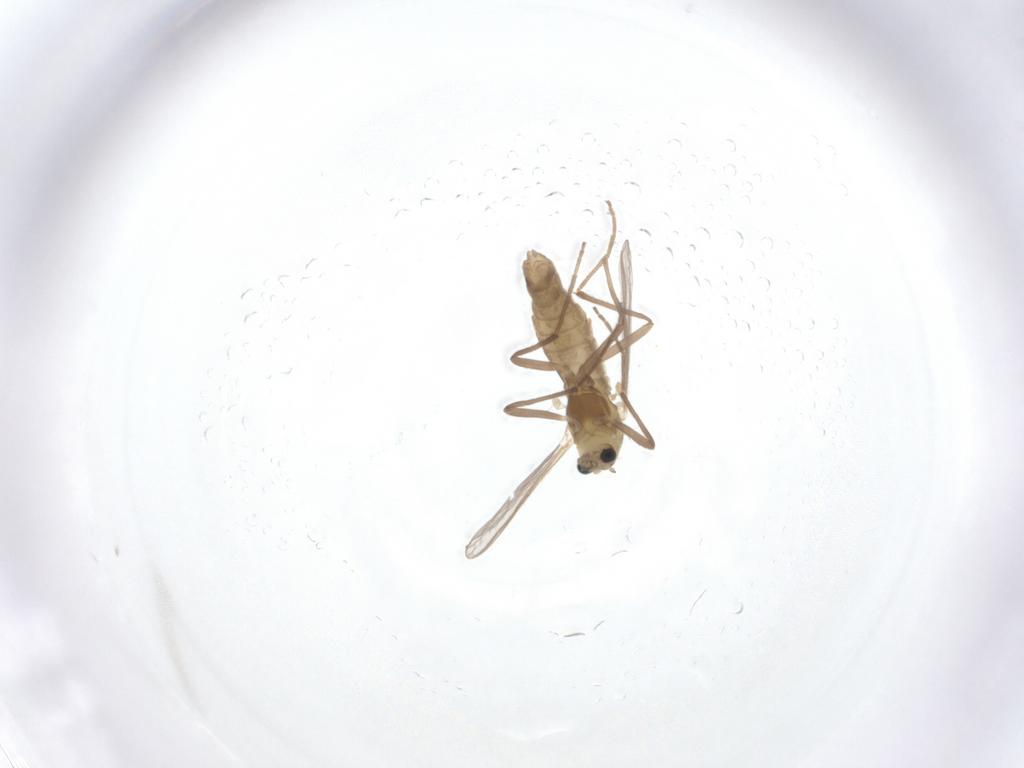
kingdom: Animalia
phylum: Arthropoda
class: Insecta
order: Diptera
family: Chironomidae
